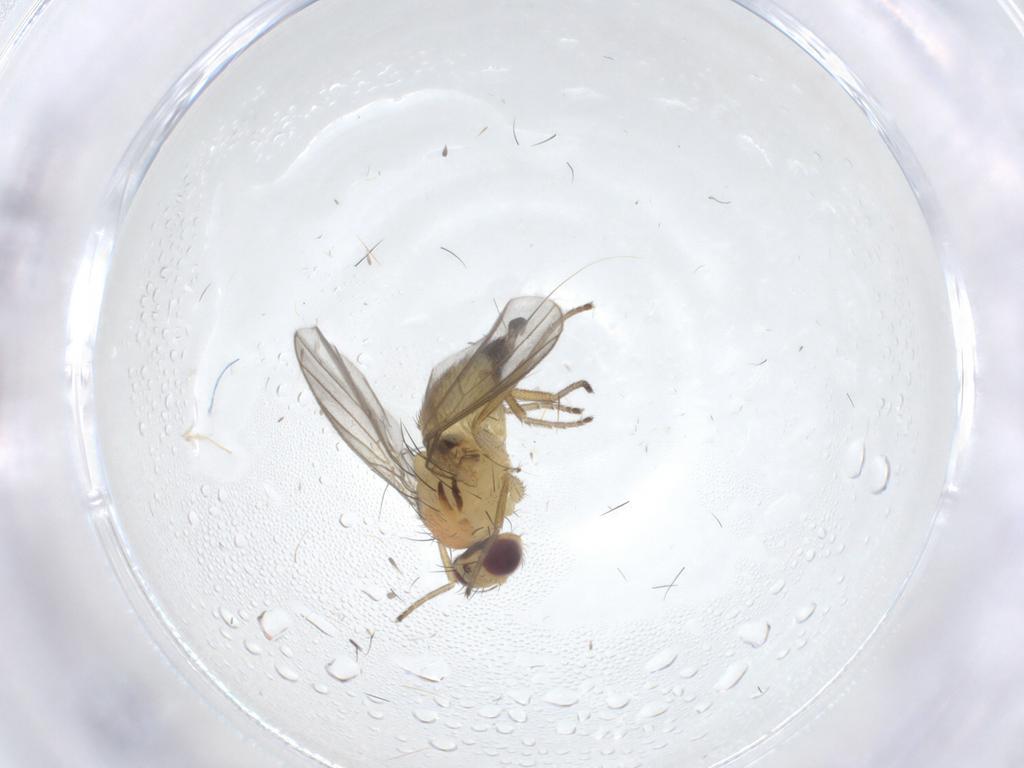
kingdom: Animalia
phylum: Arthropoda
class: Insecta
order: Diptera
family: Agromyzidae
